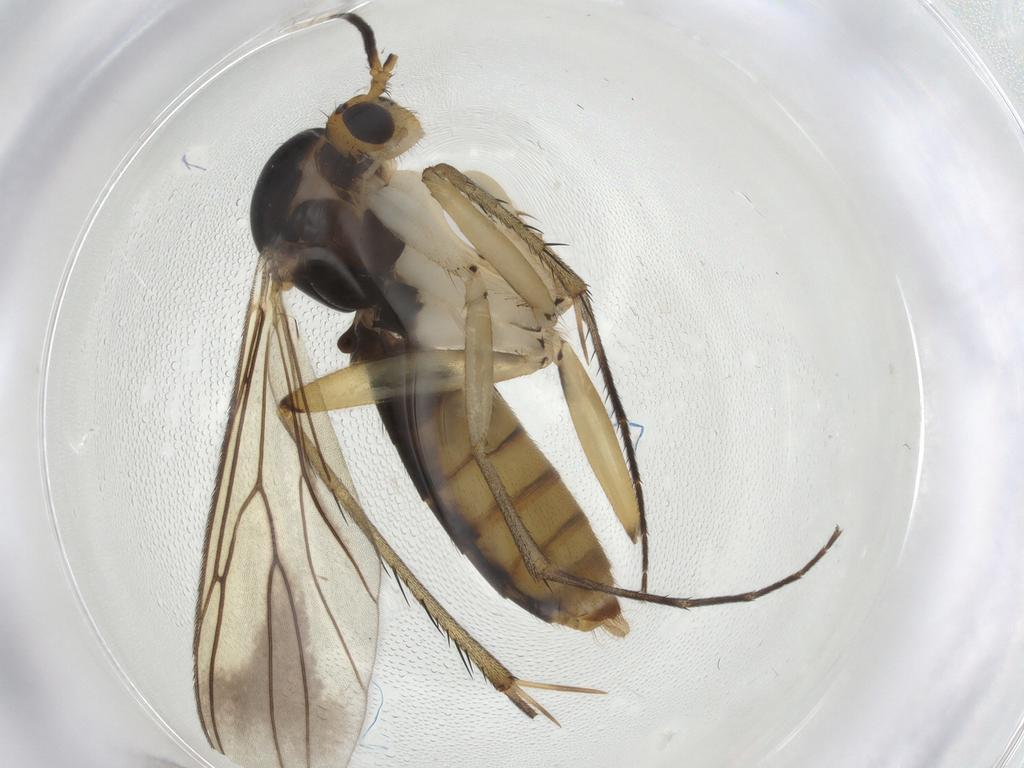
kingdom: Animalia
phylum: Arthropoda
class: Insecta
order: Diptera
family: Mycetophilidae
